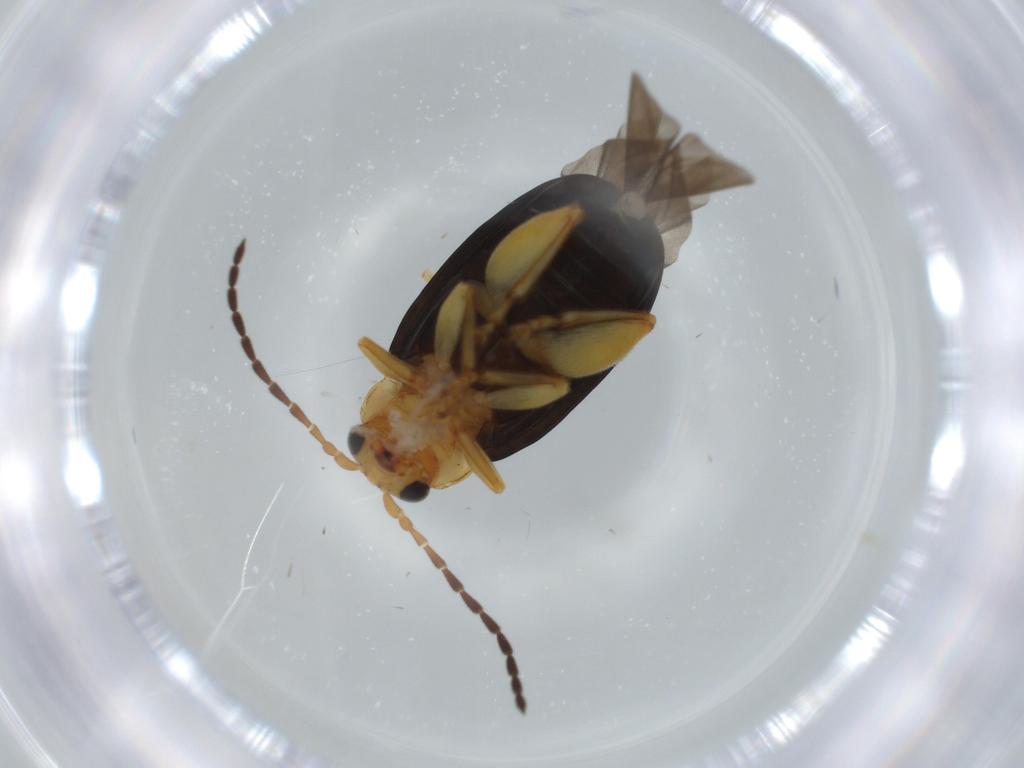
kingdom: Animalia
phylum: Arthropoda
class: Insecta
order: Coleoptera
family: Chrysomelidae
